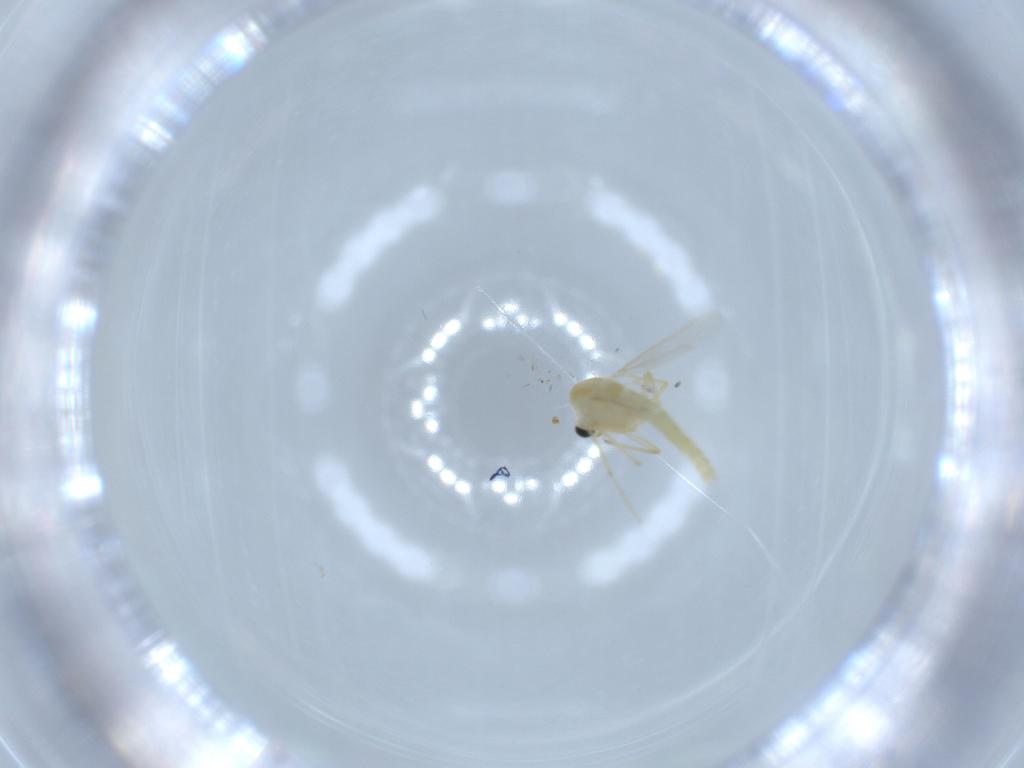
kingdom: Animalia
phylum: Arthropoda
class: Insecta
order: Diptera
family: Chironomidae
